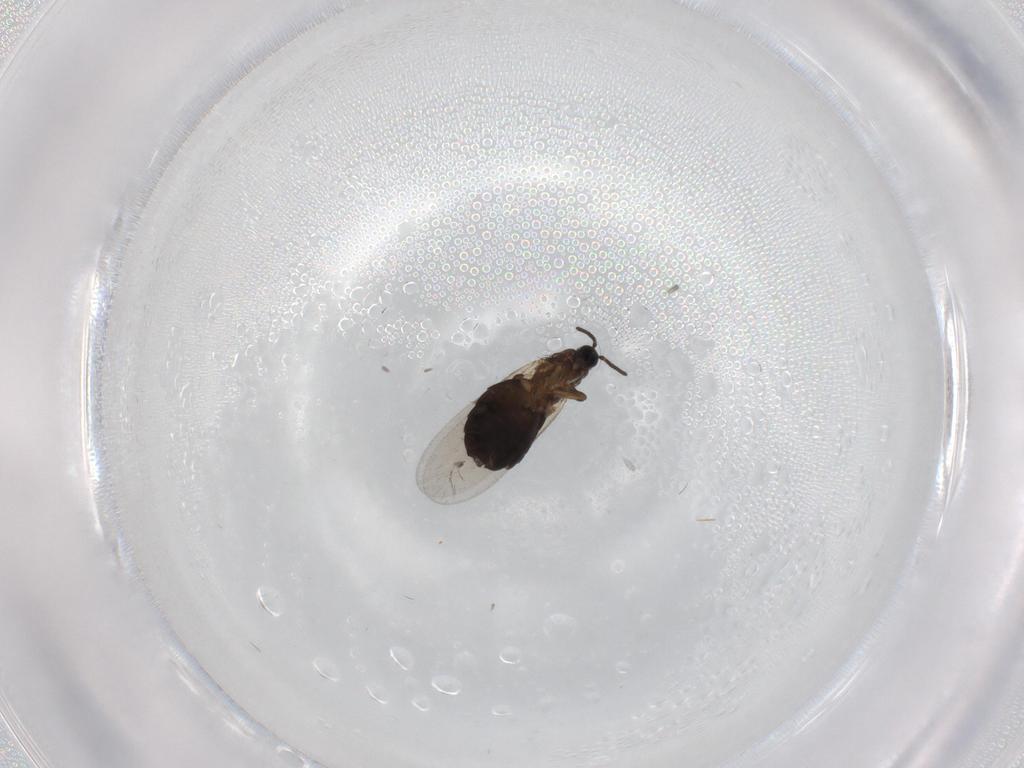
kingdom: Animalia
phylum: Arthropoda
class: Insecta
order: Diptera
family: Scatopsidae
